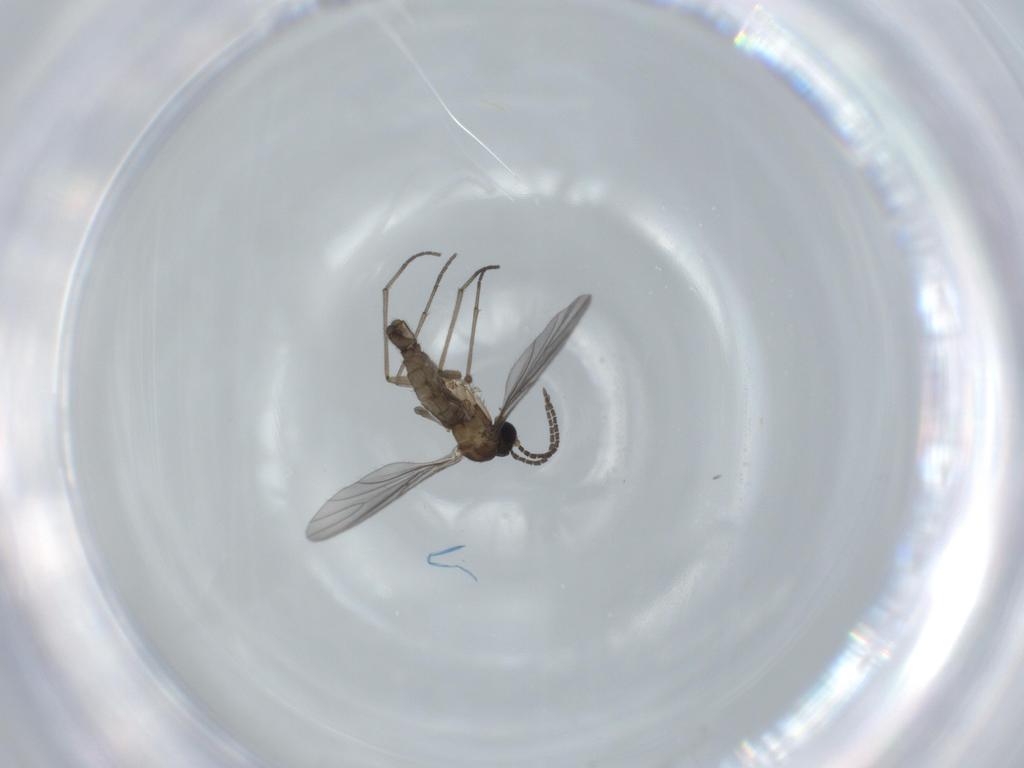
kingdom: Animalia
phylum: Arthropoda
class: Insecta
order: Diptera
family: Sciaridae
